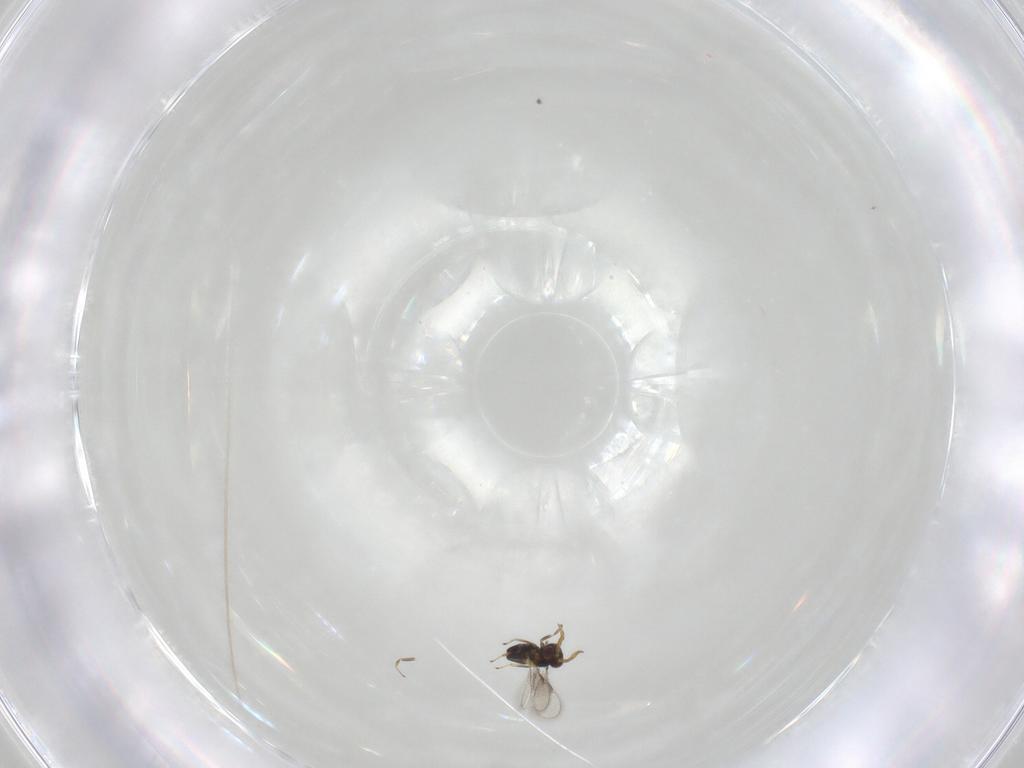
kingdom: Animalia
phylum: Arthropoda
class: Insecta
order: Hymenoptera
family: Aphelinidae
